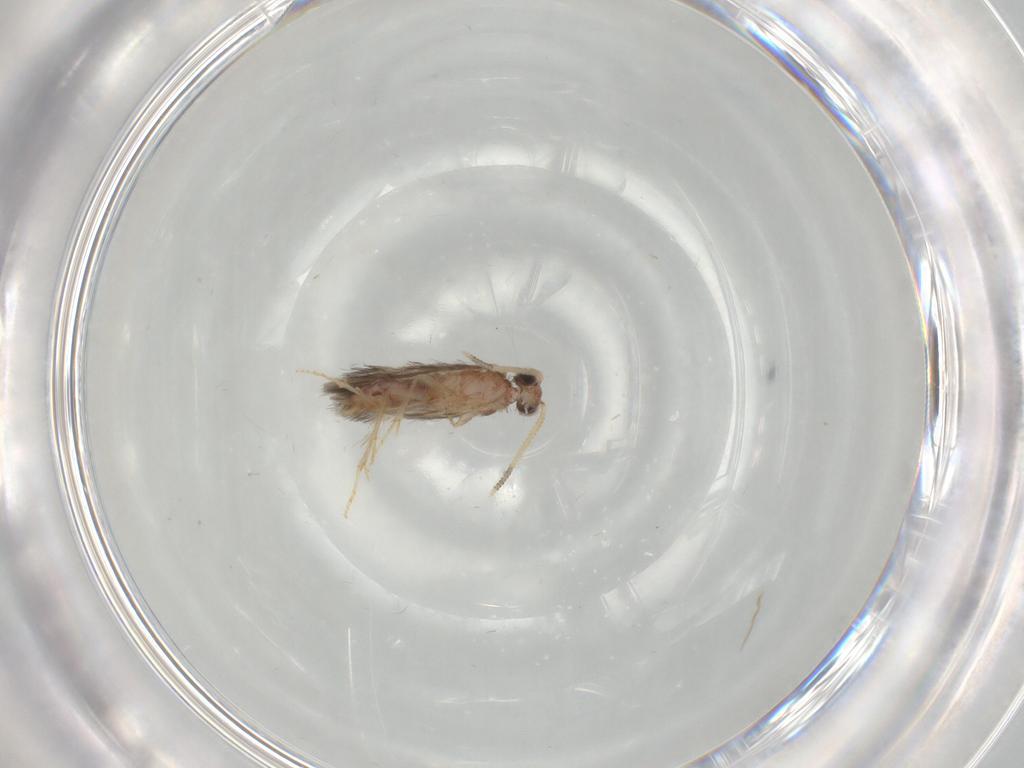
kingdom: Animalia
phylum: Arthropoda
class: Insecta
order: Trichoptera
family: Hydroptilidae
